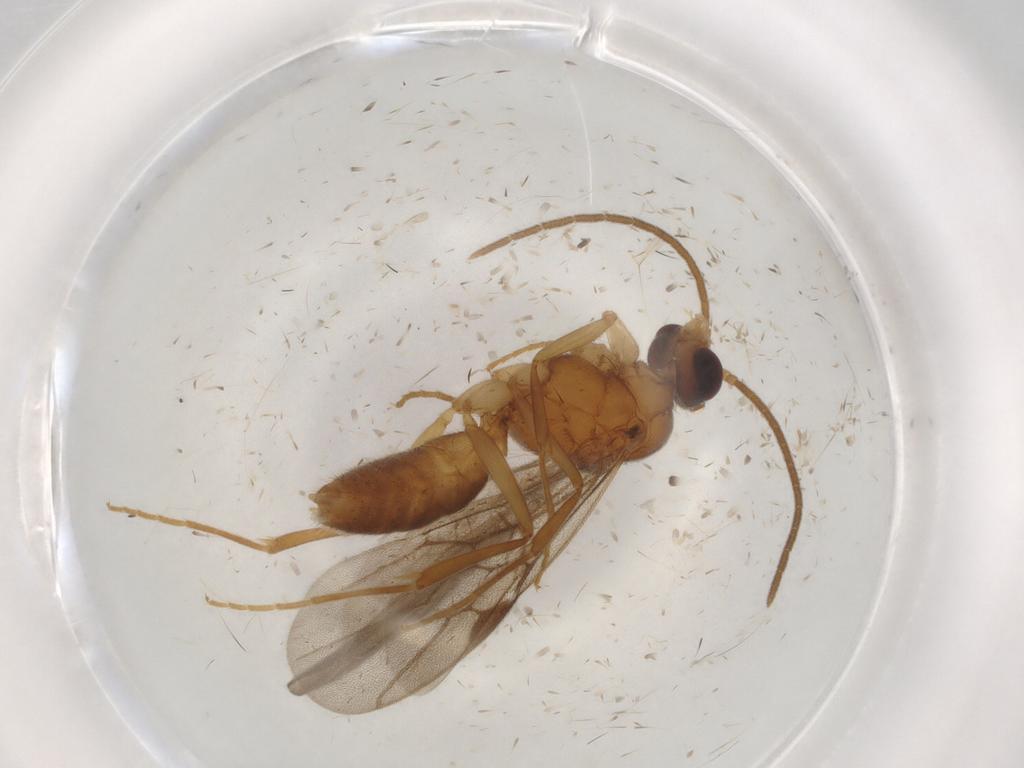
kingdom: Animalia
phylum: Arthropoda
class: Insecta
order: Hymenoptera
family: Formicidae
